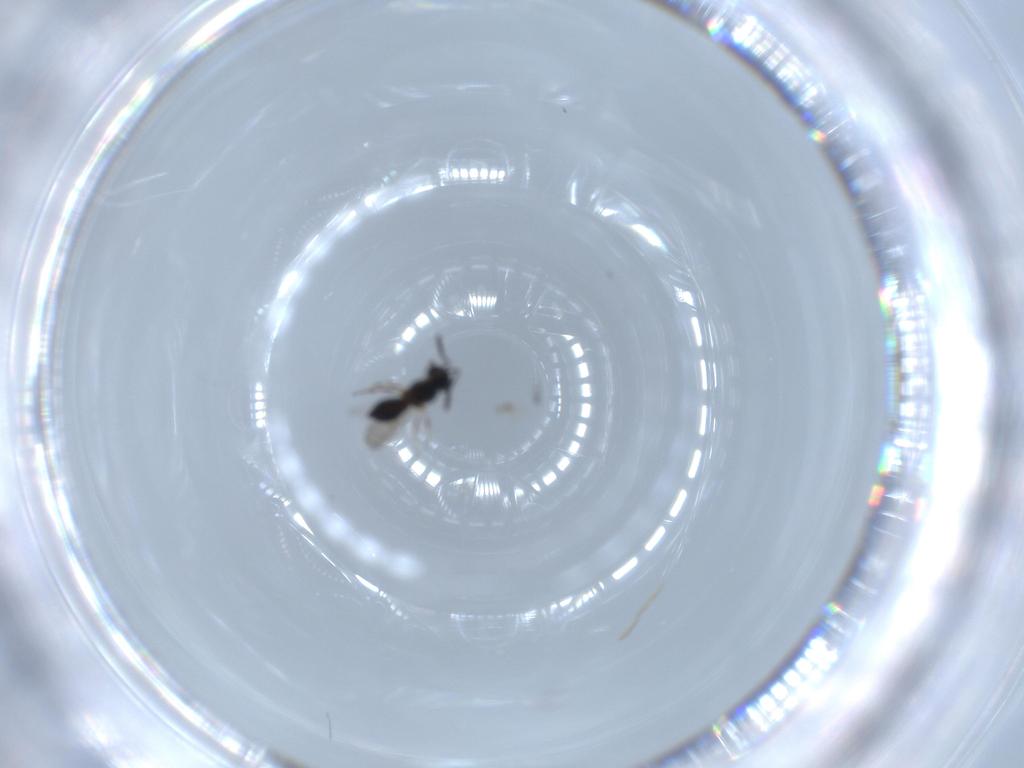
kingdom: Animalia
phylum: Arthropoda
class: Insecta
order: Hymenoptera
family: Scelionidae
